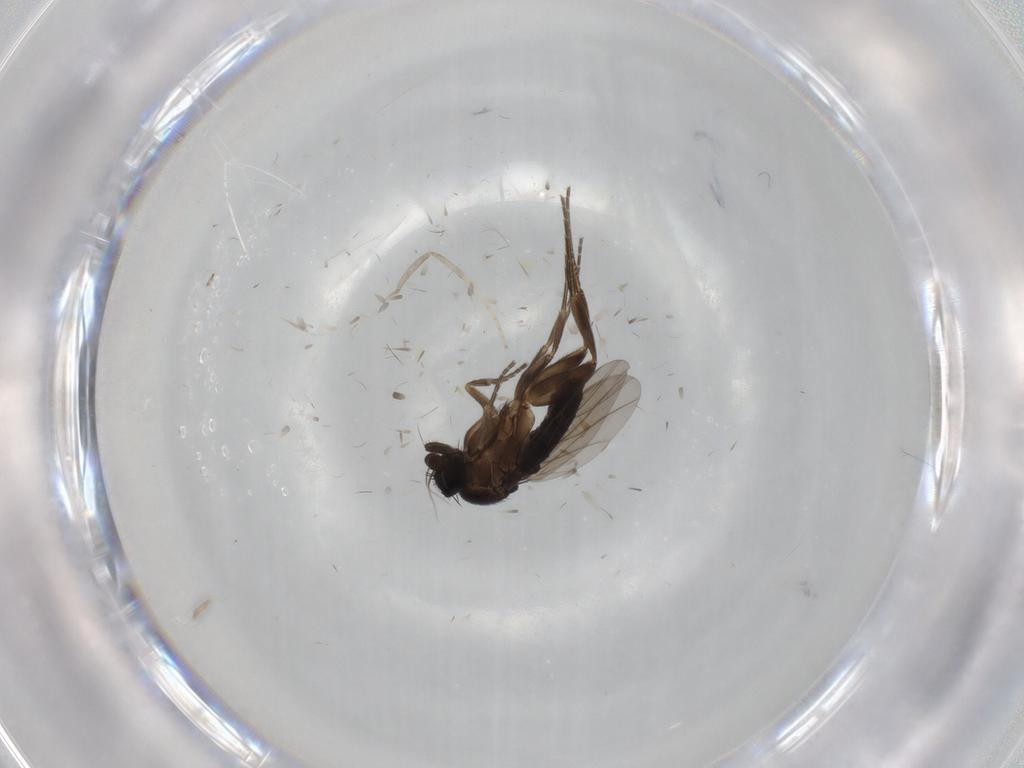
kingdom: Animalia
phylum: Arthropoda
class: Insecta
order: Diptera
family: Phoridae
